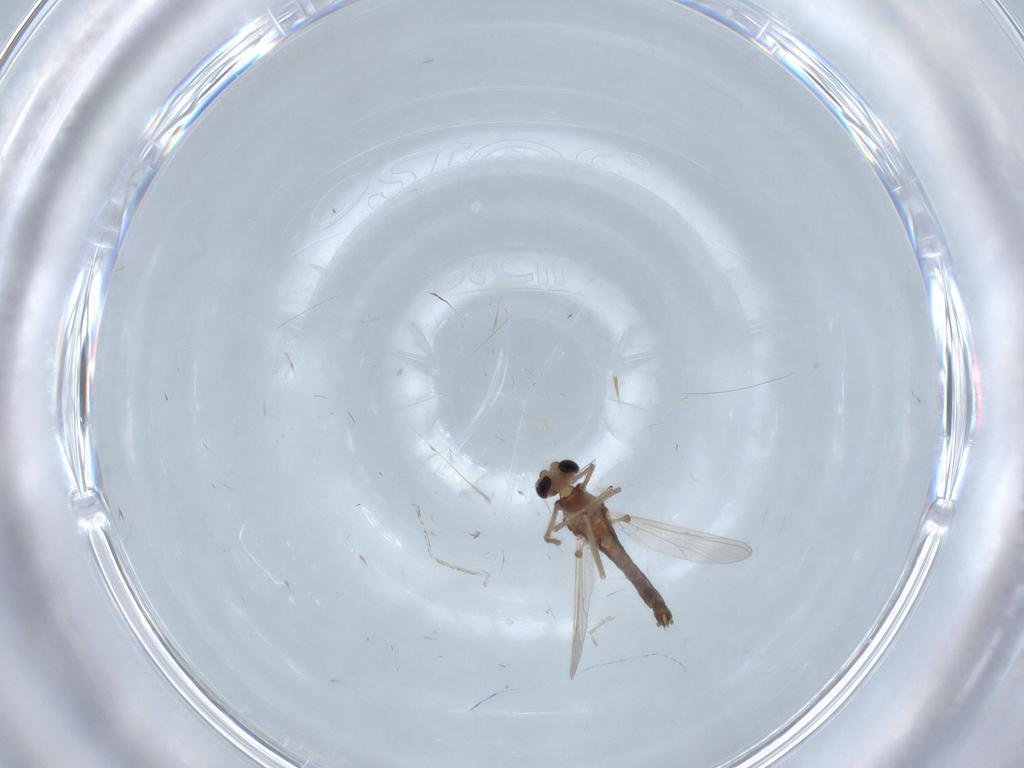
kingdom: Animalia
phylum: Arthropoda
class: Insecta
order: Diptera
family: Chironomidae
